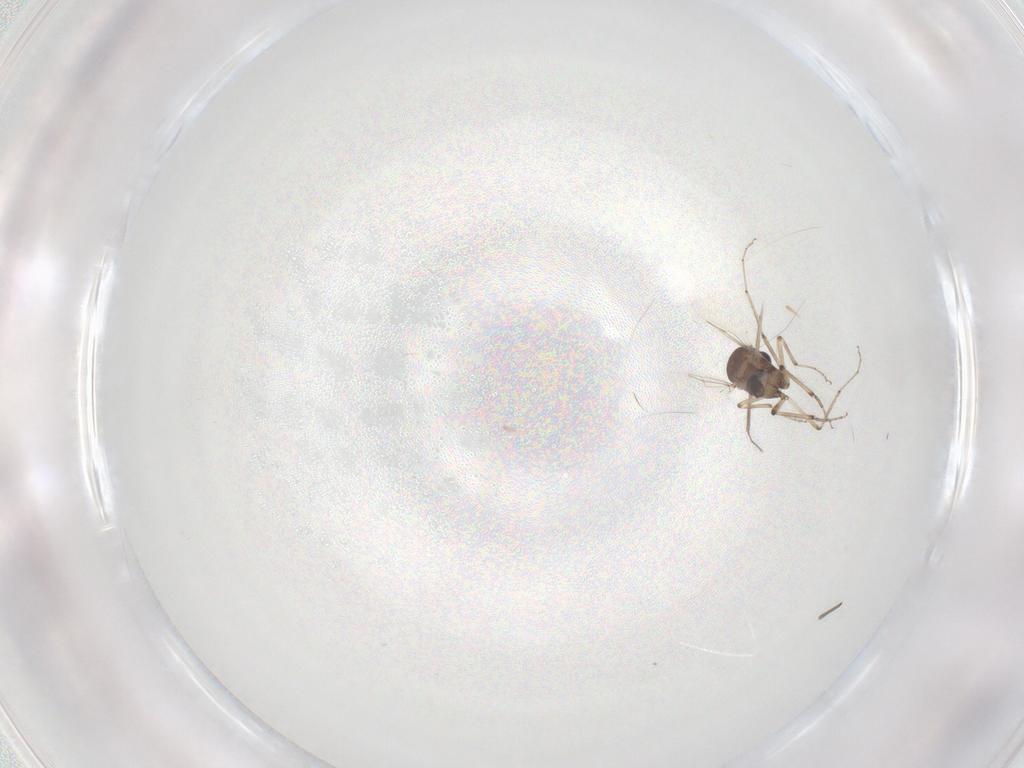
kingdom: Animalia
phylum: Arthropoda
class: Insecta
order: Diptera
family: Ceratopogonidae
